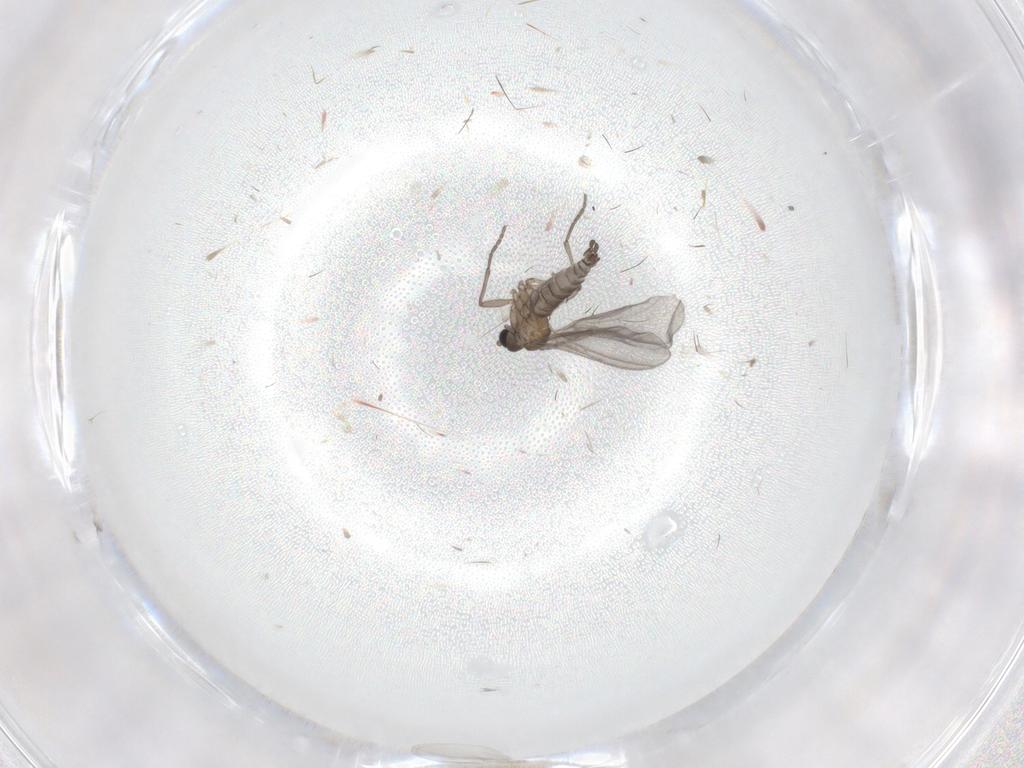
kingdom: Animalia
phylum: Arthropoda
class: Insecta
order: Diptera
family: Sciaridae
